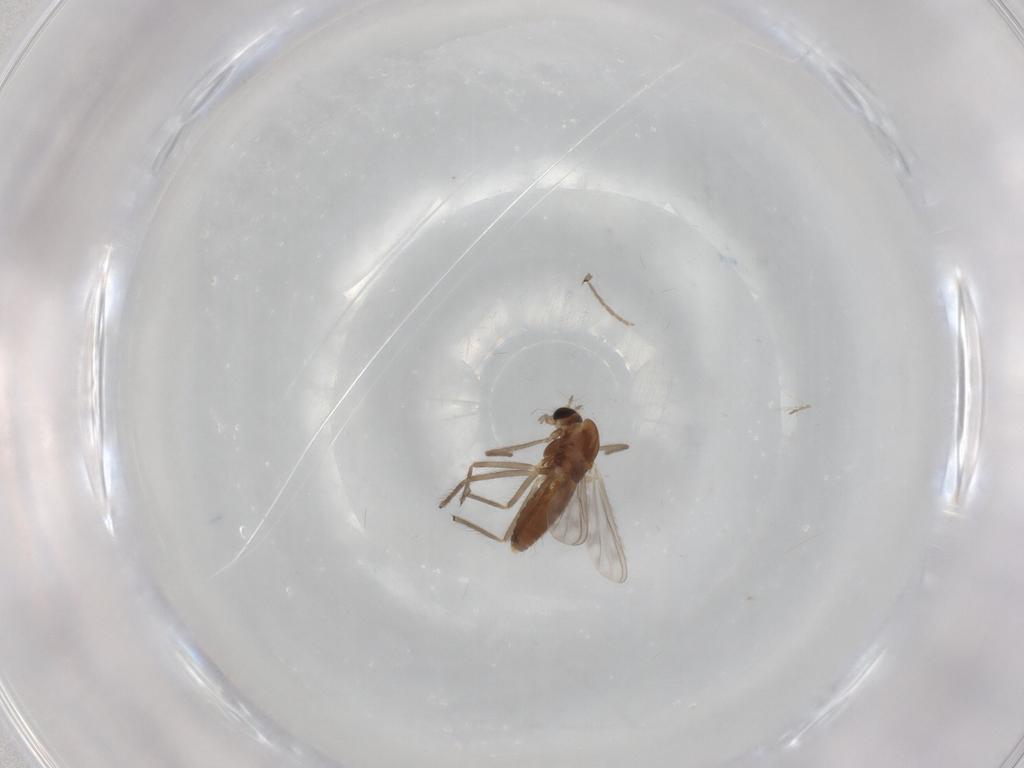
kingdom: Animalia
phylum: Arthropoda
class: Insecta
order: Diptera
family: Chironomidae
